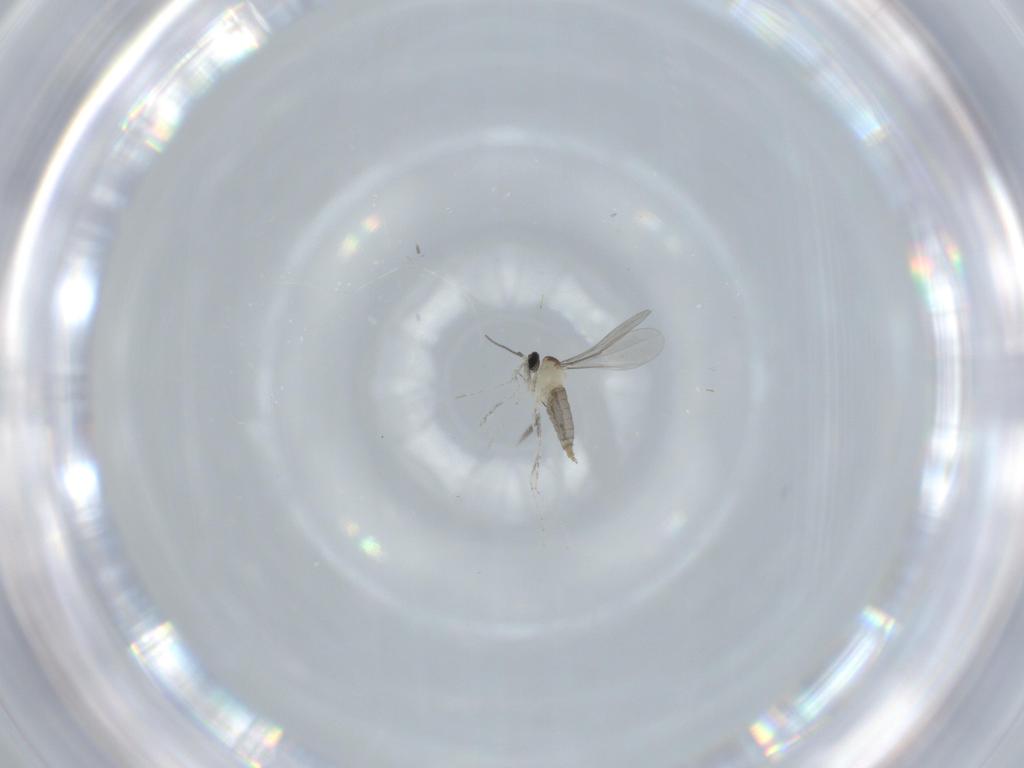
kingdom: Animalia
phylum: Arthropoda
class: Insecta
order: Diptera
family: Cecidomyiidae
